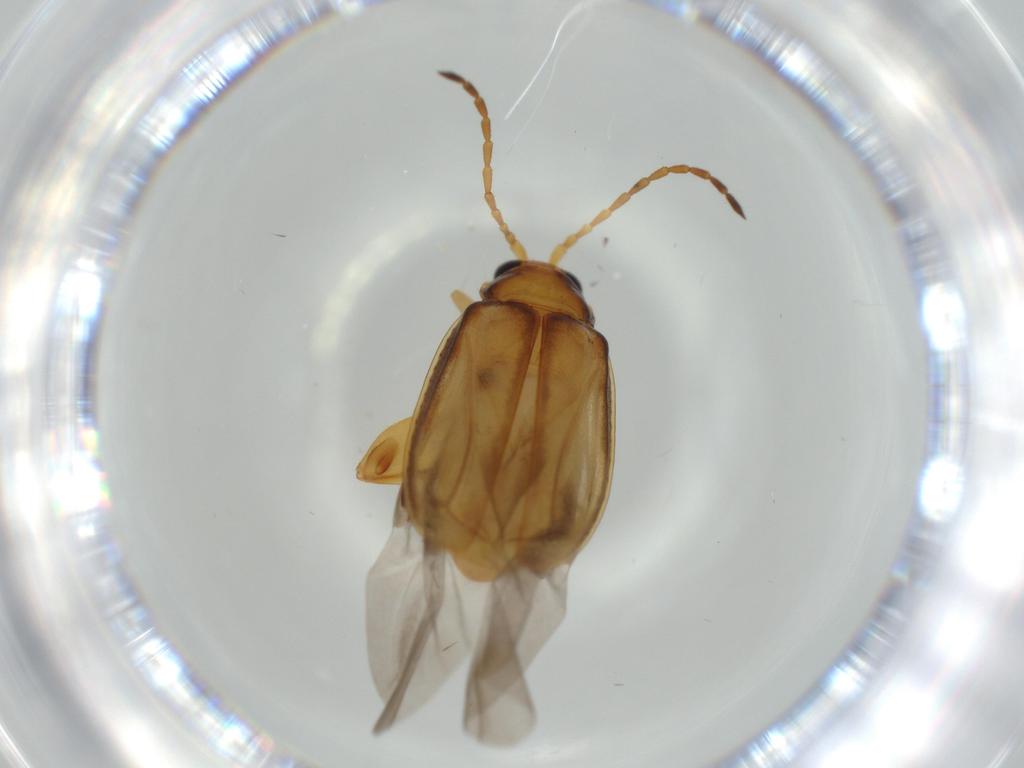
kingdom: Animalia
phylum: Arthropoda
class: Insecta
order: Coleoptera
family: Chrysomelidae
